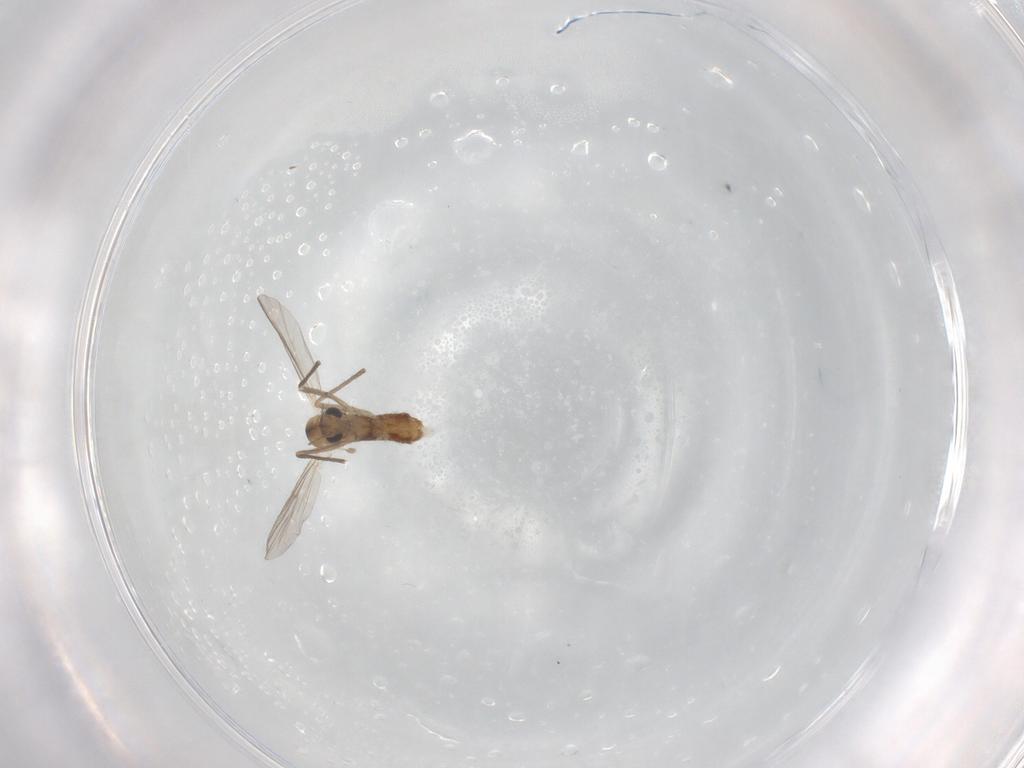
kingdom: Animalia
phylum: Arthropoda
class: Insecta
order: Diptera
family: Chironomidae
